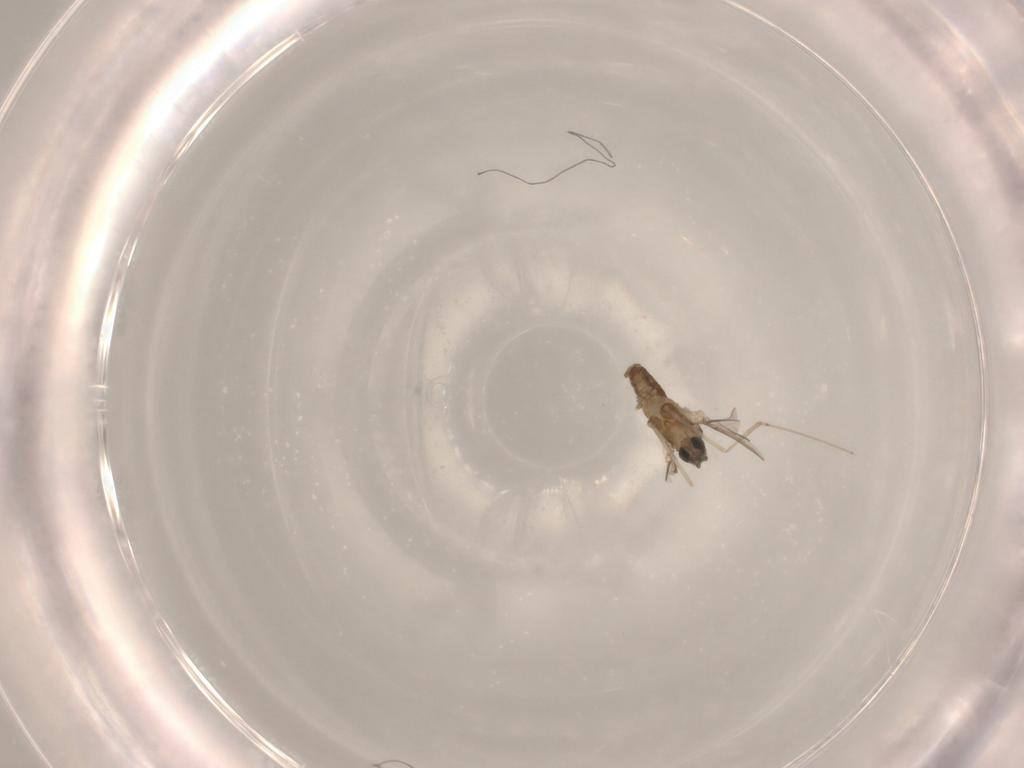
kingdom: Animalia
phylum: Arthropoda
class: Insecta
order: Diptera
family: Cecidomyiidae
